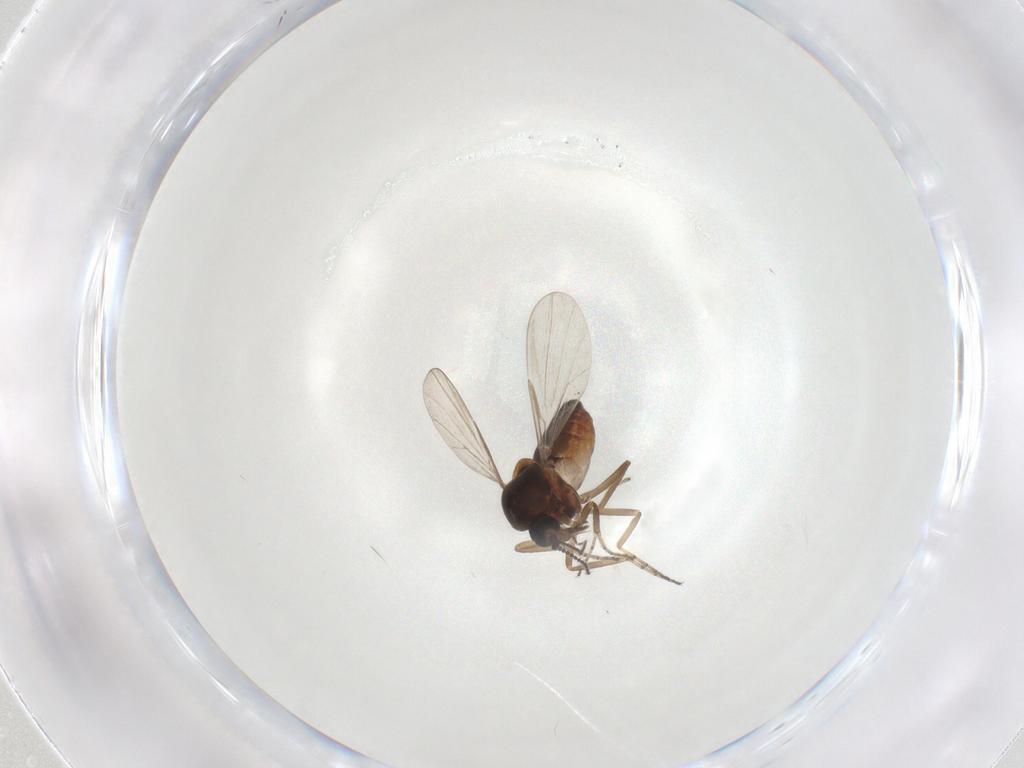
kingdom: Animalia
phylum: Arthropoda
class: Insecta
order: Diptera
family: Ceratopogonidae
